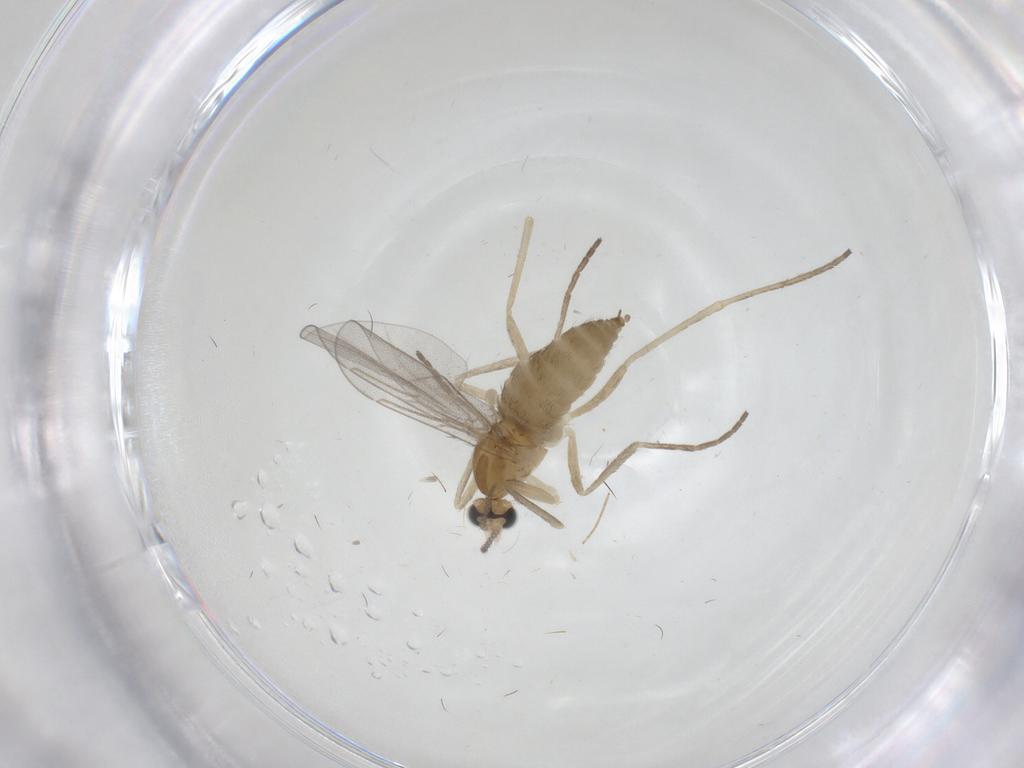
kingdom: Animalia
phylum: Arthropoda
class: Insecta
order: Diptera
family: Cecidomyiidae
